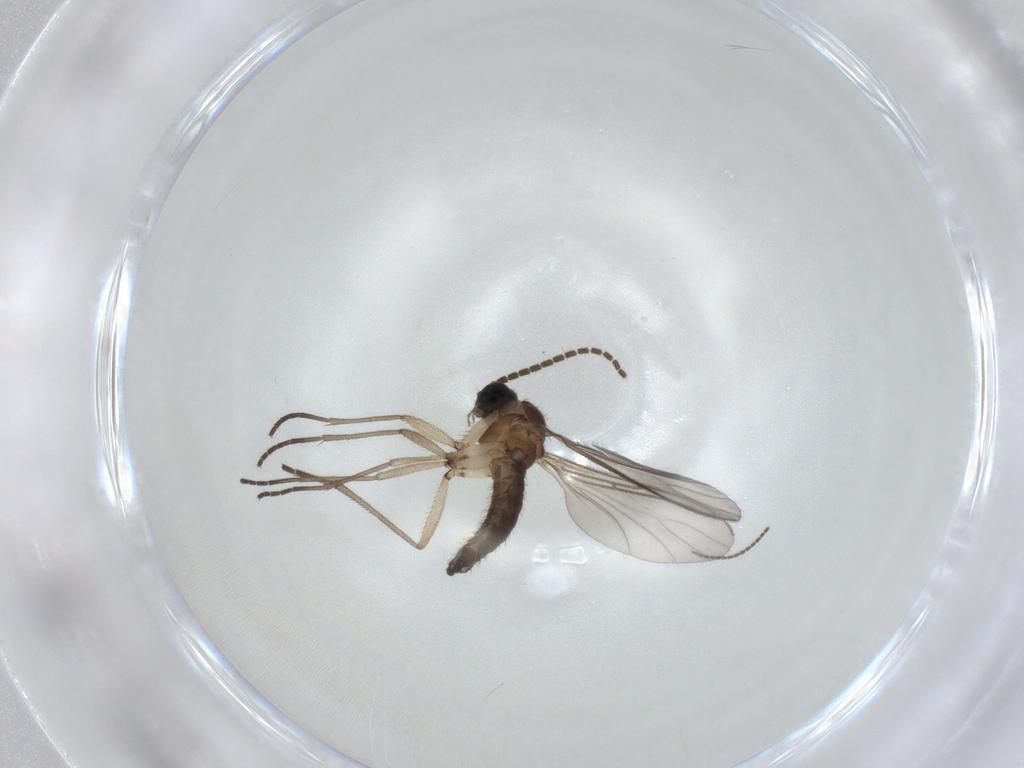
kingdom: Animalia
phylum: Arthropoda
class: Insecta
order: Diptera
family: Sciaridae
